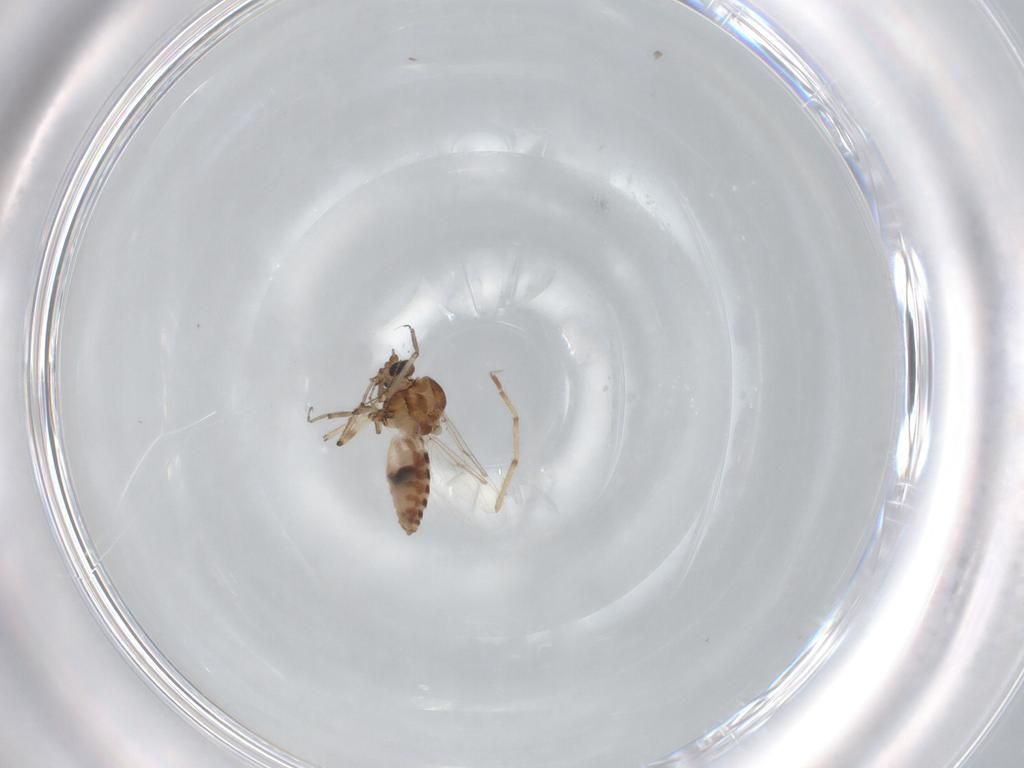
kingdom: Animalia
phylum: Arthropoda
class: Insecta
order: Diptera
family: Ceratopogonidae
